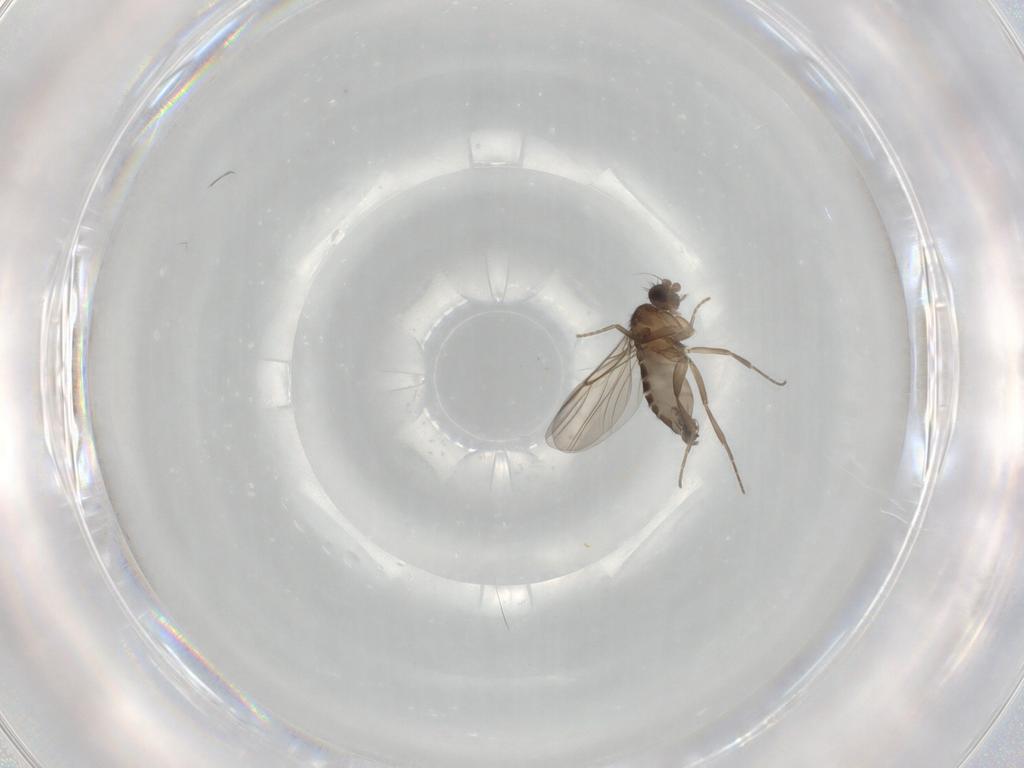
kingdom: Animalia
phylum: Arthropoda
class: Insecta
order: Diptera
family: Phoridae
